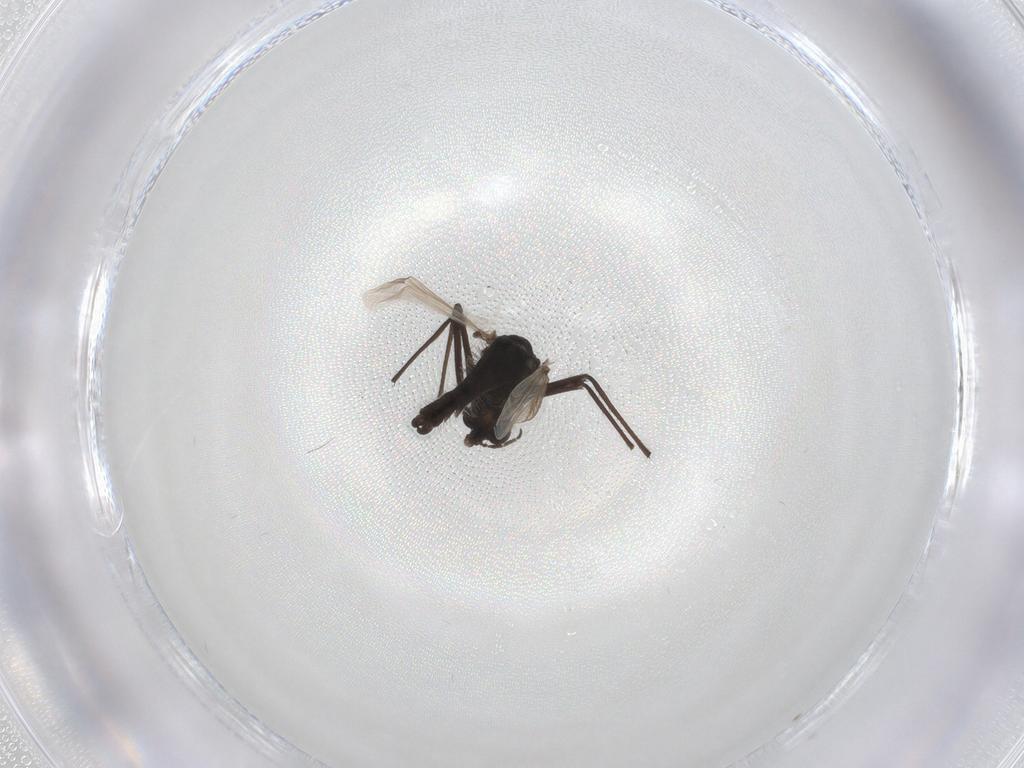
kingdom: Animalia
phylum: Arthropoda
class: Insecta
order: Diptera
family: Chironomidae
